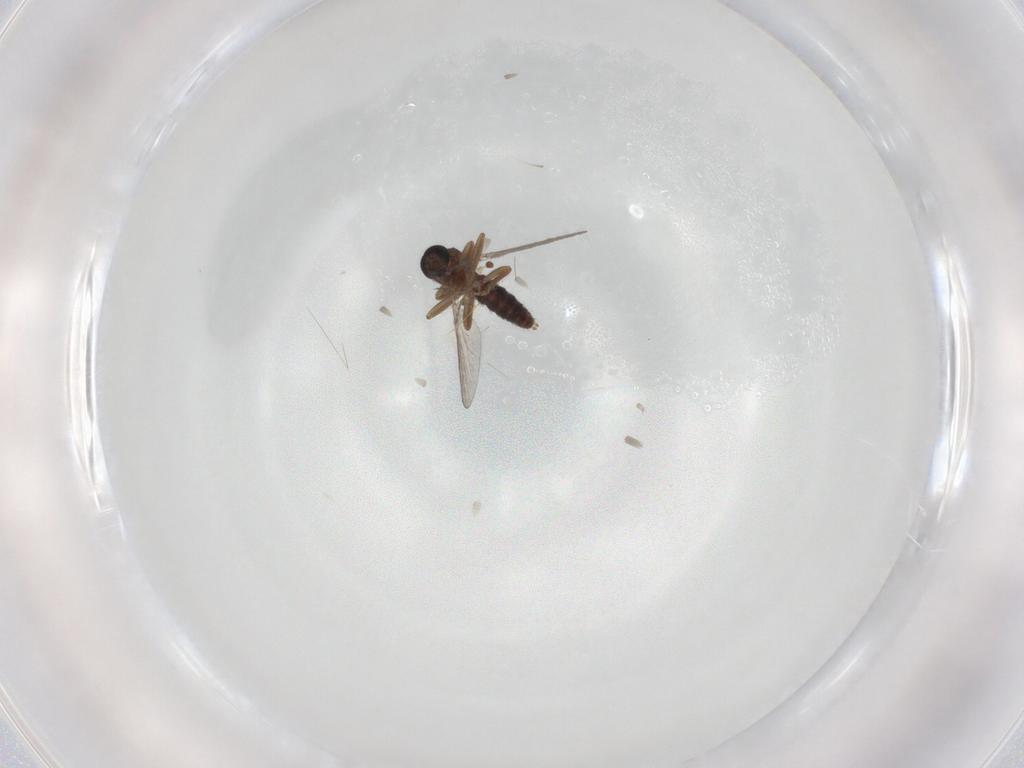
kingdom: Animalia
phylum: Arthropoda
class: Insecta
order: Diptera
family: Ceratopogonidae
